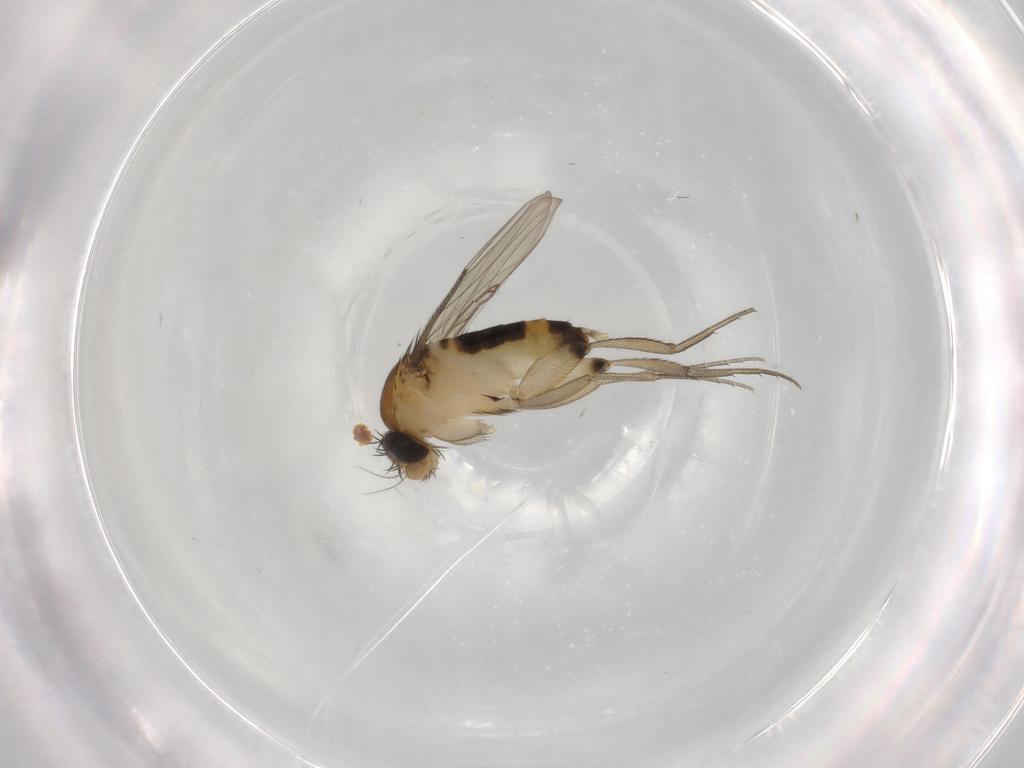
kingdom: Animalia
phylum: Arthropoda
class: Insecta
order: Diptera
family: Phoridae
